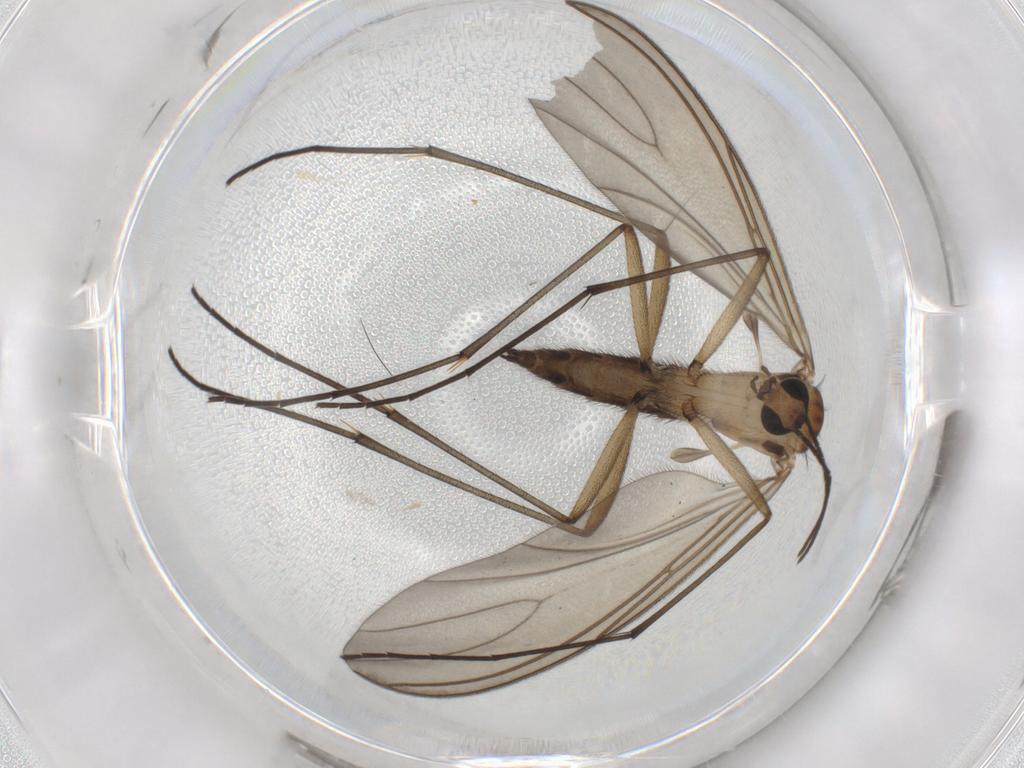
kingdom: Animalia
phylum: Arthropoda
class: Insecta
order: Diptera
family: Sciaridae
